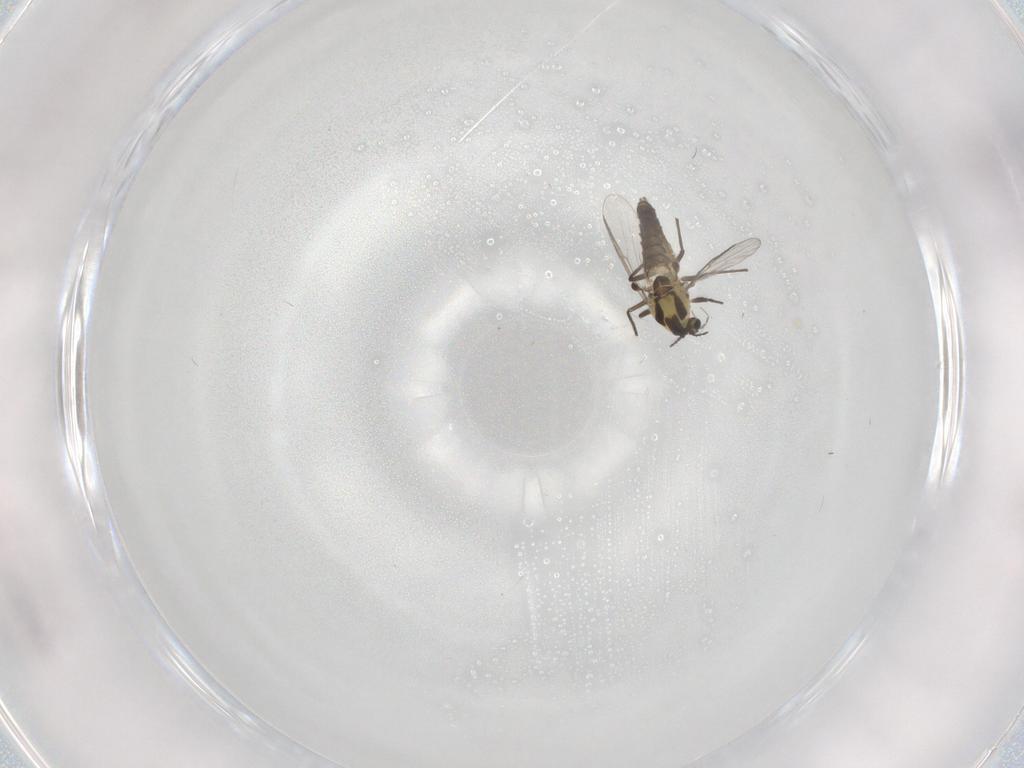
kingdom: Animalia
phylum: Arthropoda
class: Insecta
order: Diptera
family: Chironomidae
